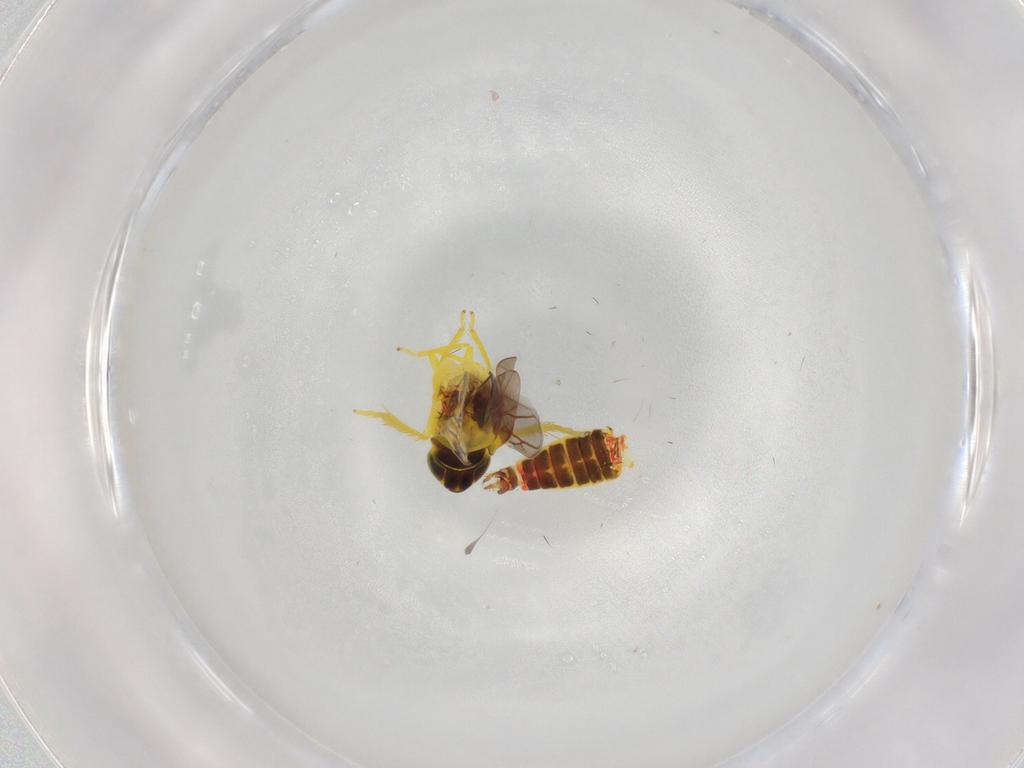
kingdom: Animalia
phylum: Arthropoda
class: Insecta
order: Hemiptera
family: Cicadellidae
